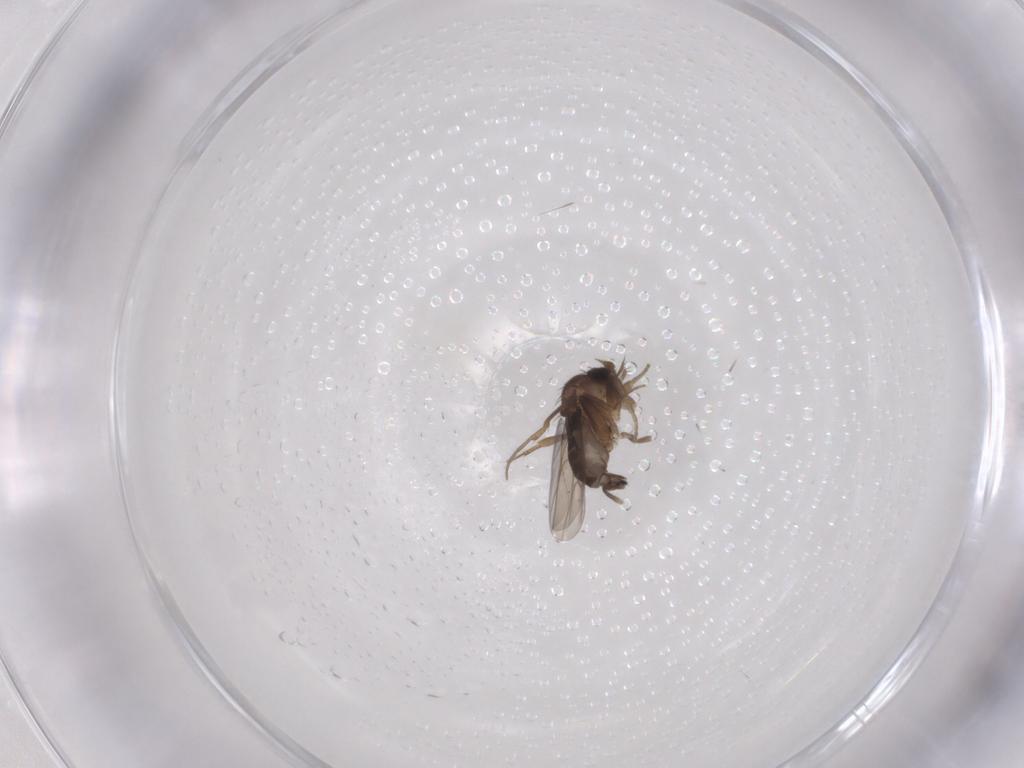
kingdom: Animalia
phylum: Arthropoda
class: Insecta
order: Diptera
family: Phoridae
